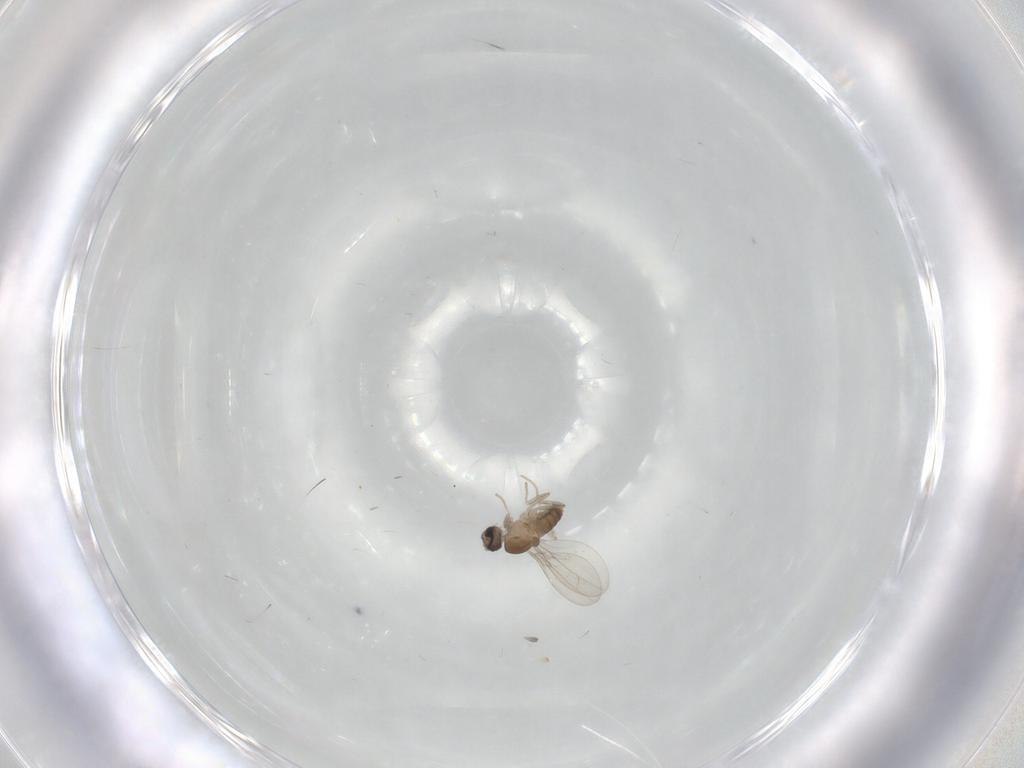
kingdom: Animalia
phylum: Arthropoda
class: Insecta
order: Diptera
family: Cecidomyiidae
